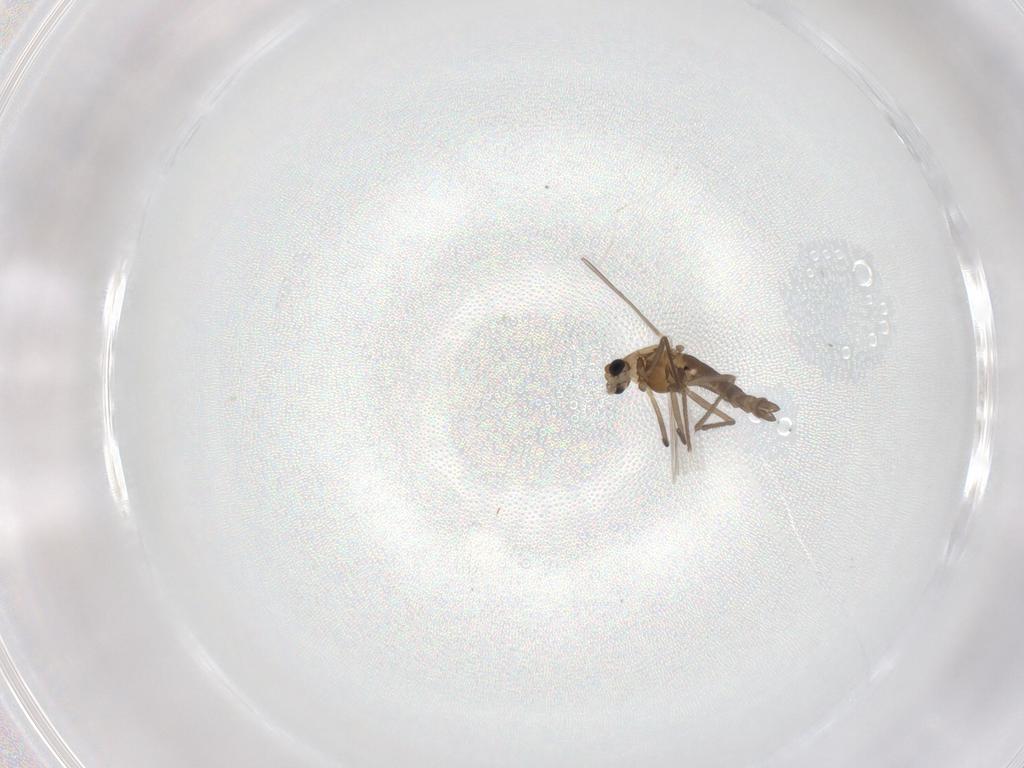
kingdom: Animalia
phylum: Arthropoda
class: Insecta
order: Diptera
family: Chironomidae
